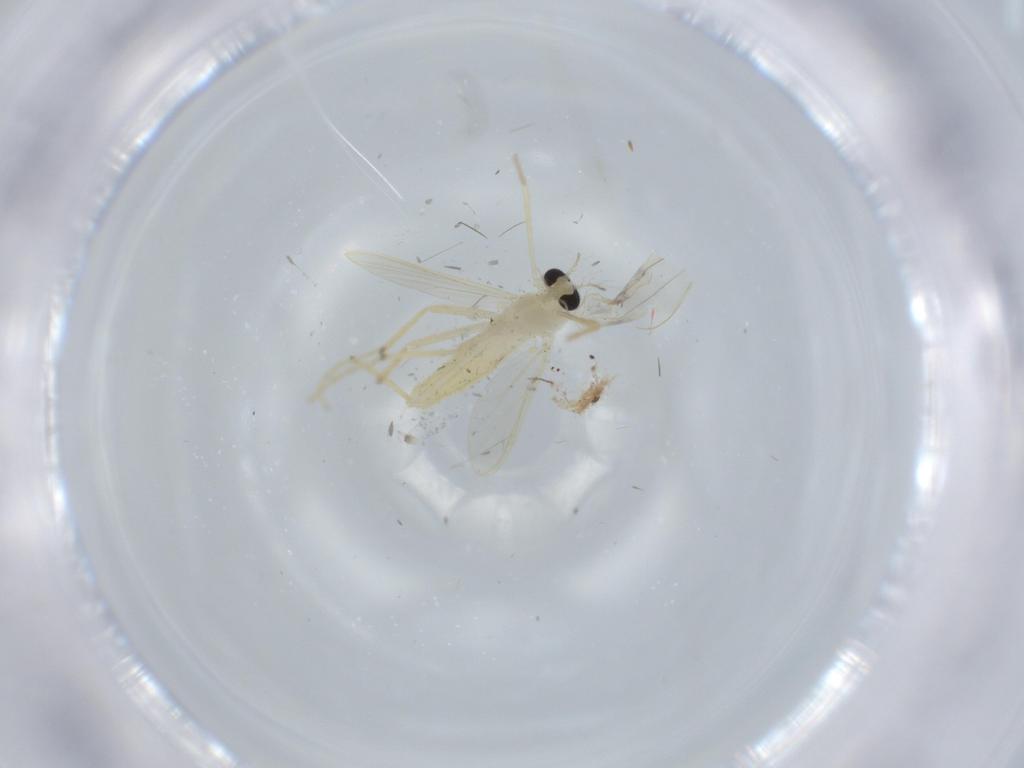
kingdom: Animalia
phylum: Arthropoda
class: Insecta
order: Diptera
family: Chironomidae
